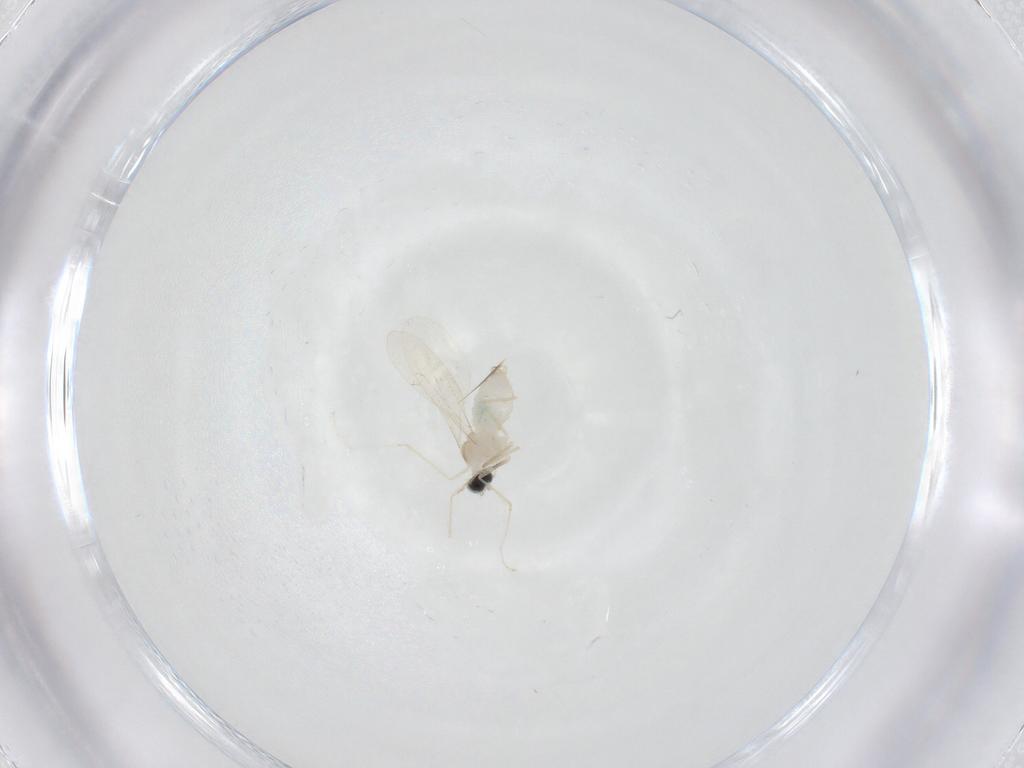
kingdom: Animalia
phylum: Arthropoda
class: Insecta
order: Diptera
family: Cecidomyiidae
